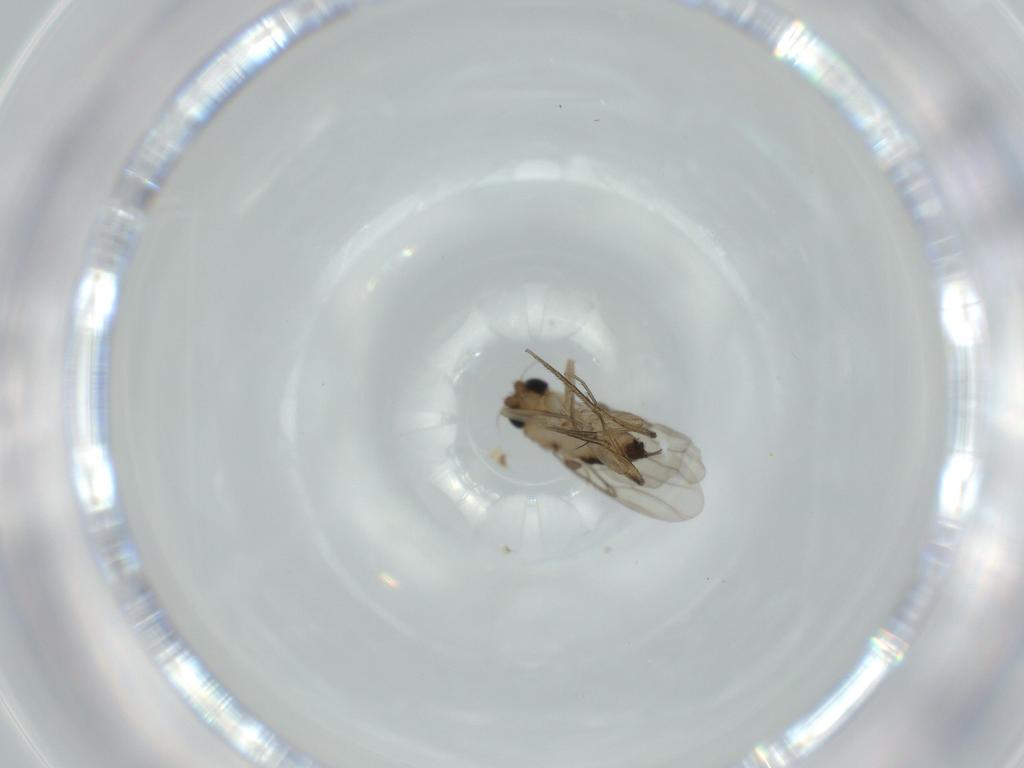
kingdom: Animalia
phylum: Arthropoda
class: Insecta
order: Diptera
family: Phoridae
